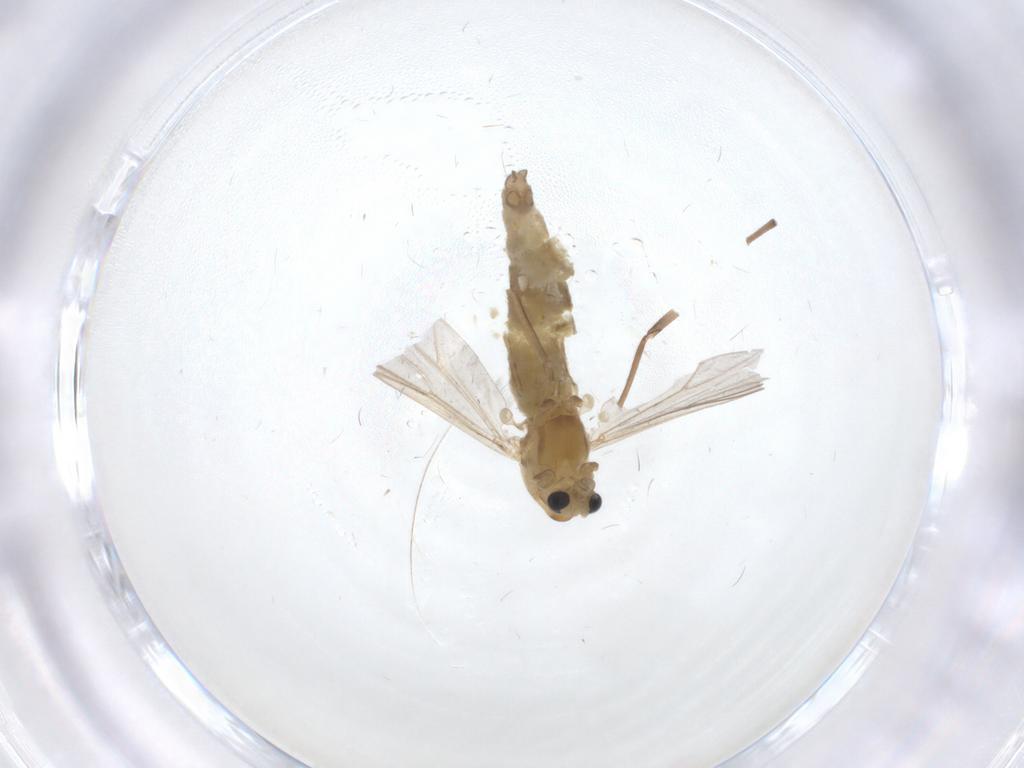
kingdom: Animalia
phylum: Arthropoda
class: Insecta
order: Diptera
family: Chironomidae
